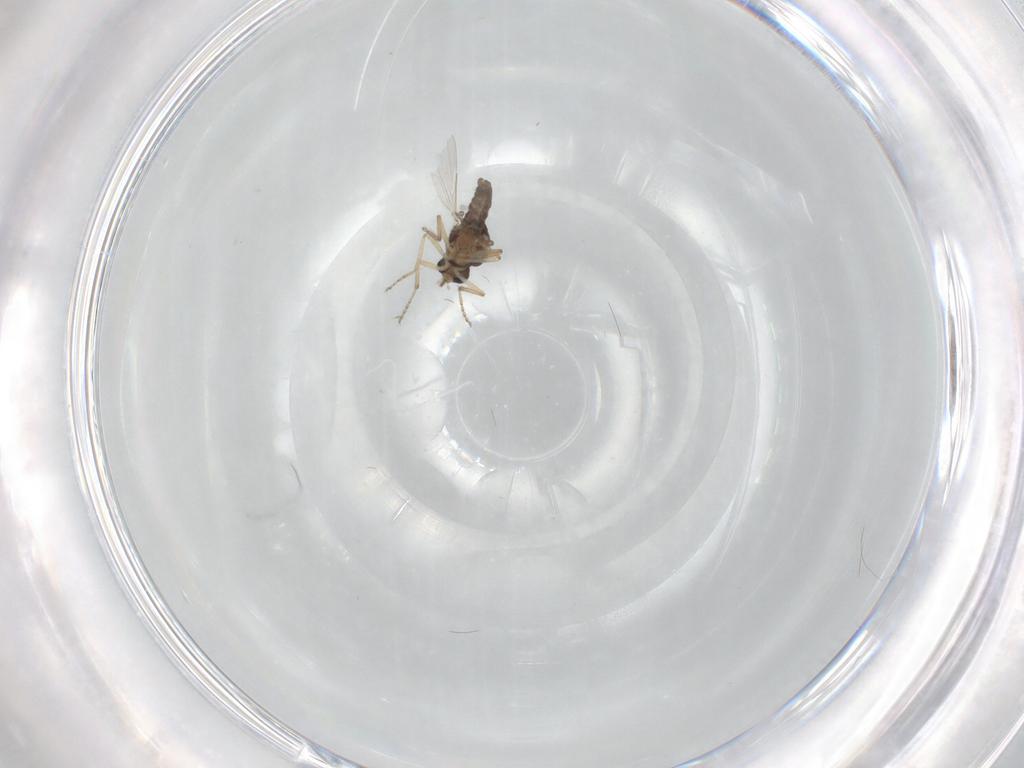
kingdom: Animalia
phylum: Arthropoda
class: Insecta
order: Diptera
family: Ceratopogonidae
